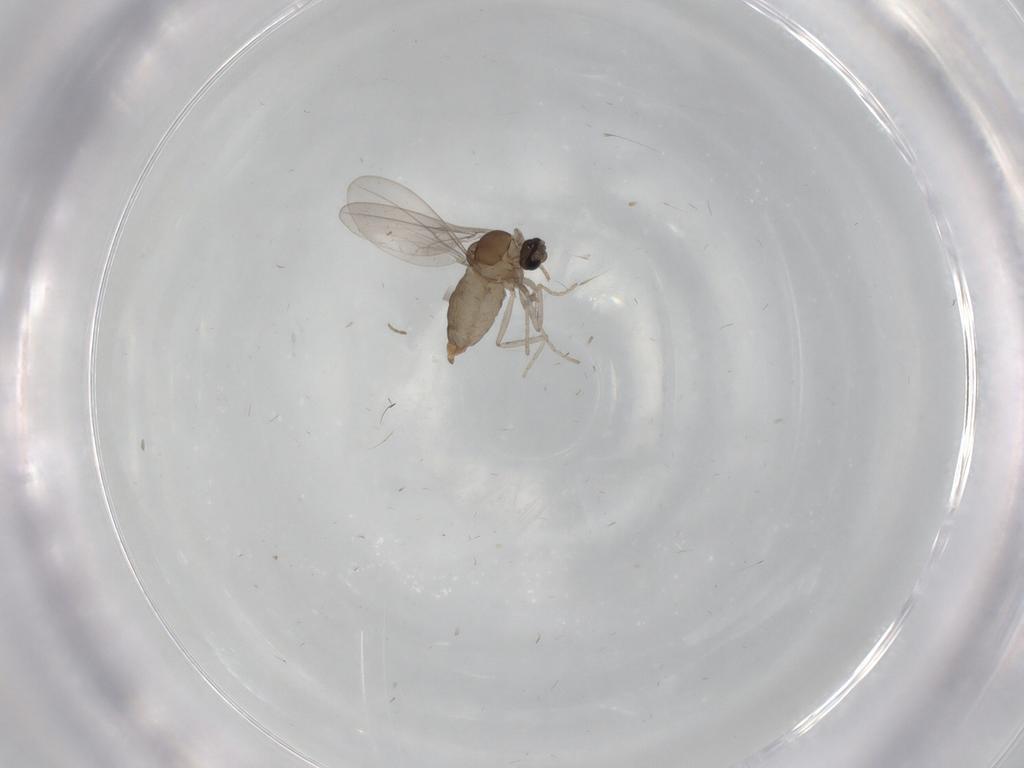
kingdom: Animalia
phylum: Arthropoda
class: Insecta
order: Diptera
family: Cecidomyiidae
